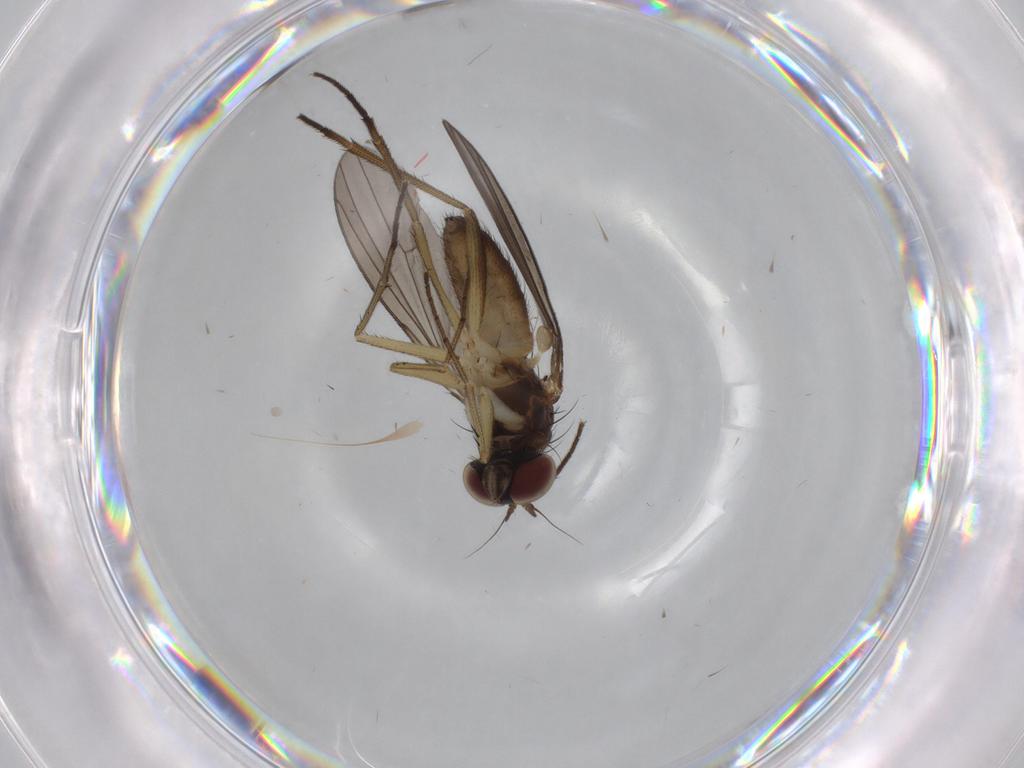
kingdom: Animalia
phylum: Arthropoda
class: Insecta
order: Diptera
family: Dolichopodidae
